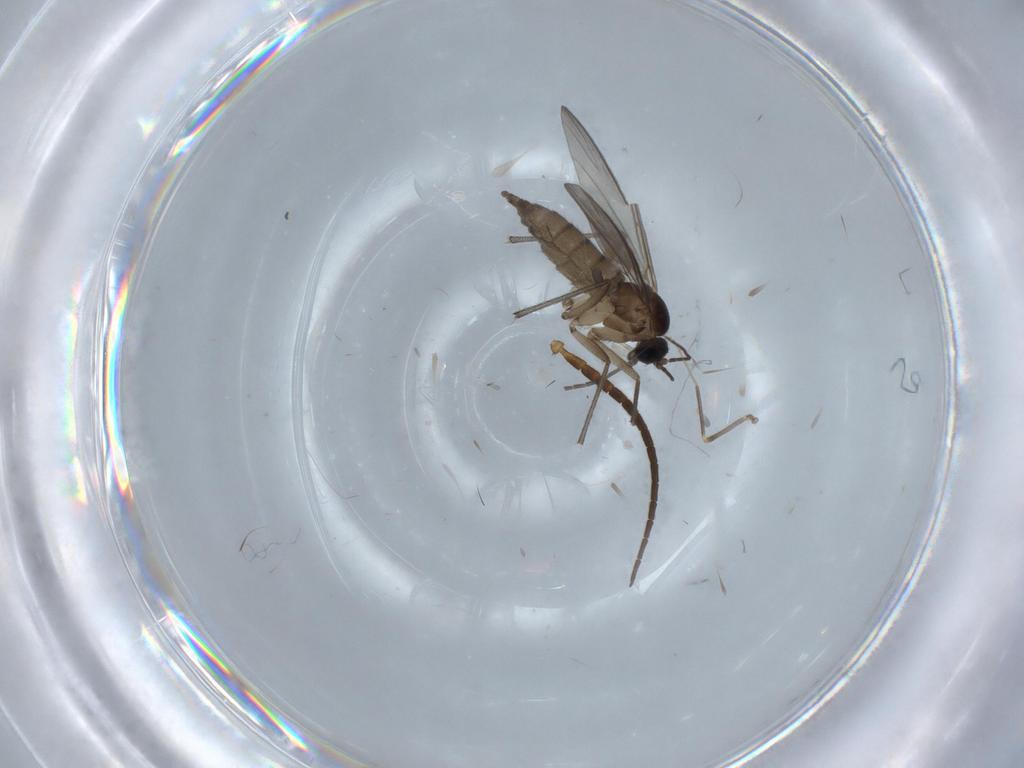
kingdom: Animalia
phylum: Arthropoda
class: Insecta
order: Diptera
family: Keroplatidae
